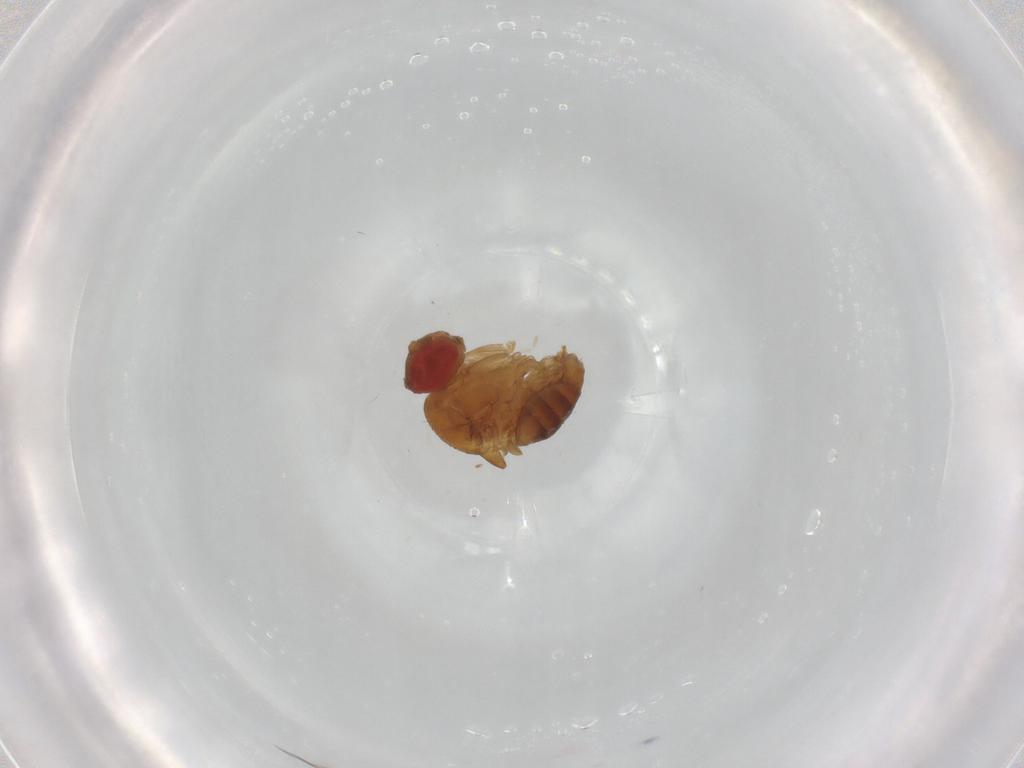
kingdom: Animalia
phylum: Arthropoda
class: Insecta
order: Diptera
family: Drosophilidae
